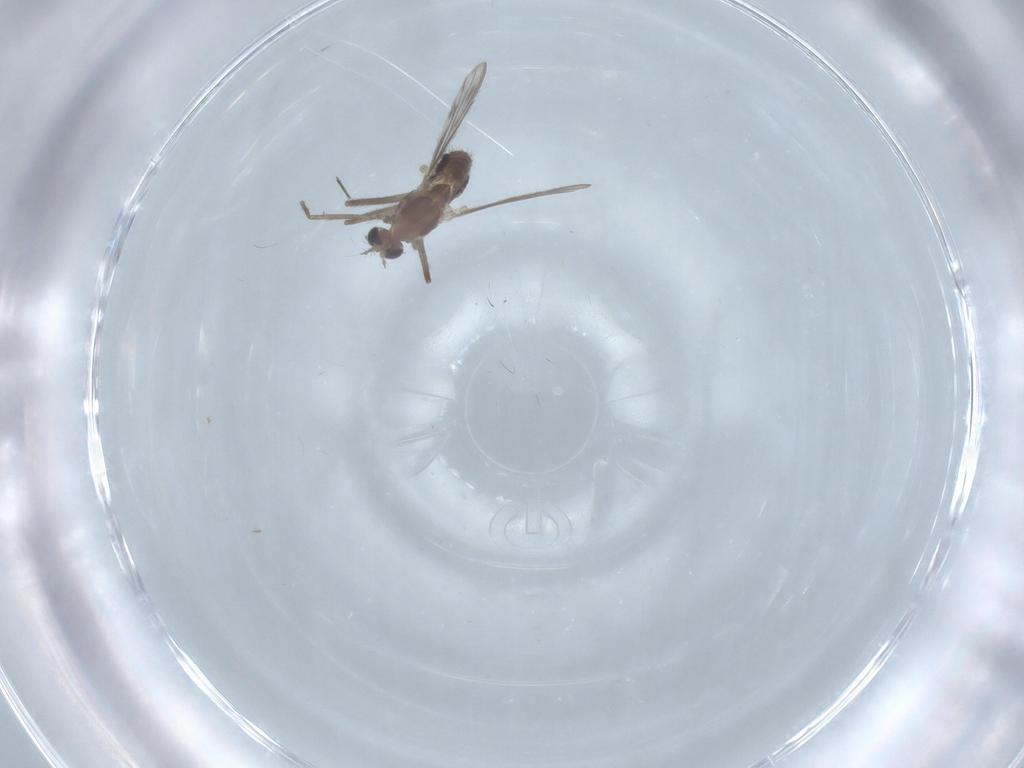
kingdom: Animalia
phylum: Arthropoda
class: Insecta
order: Diptera
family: Chironomidae
